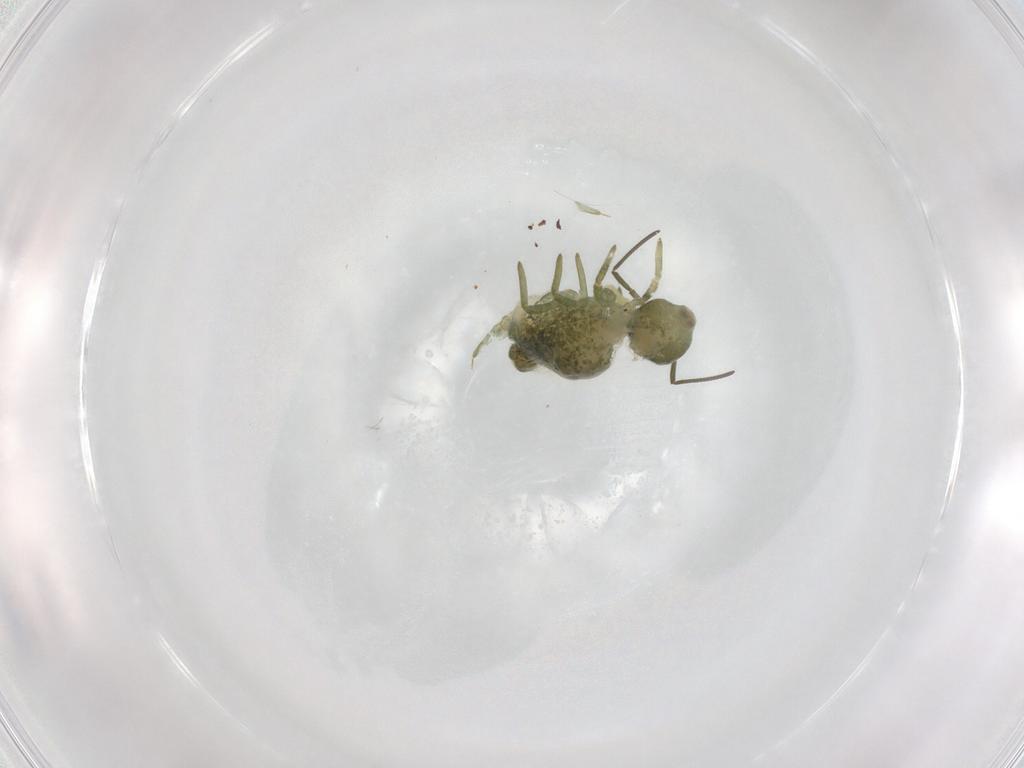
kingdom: Animalia
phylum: Arthropoda
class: Collembola
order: Symphypleona
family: Sminthuridae
